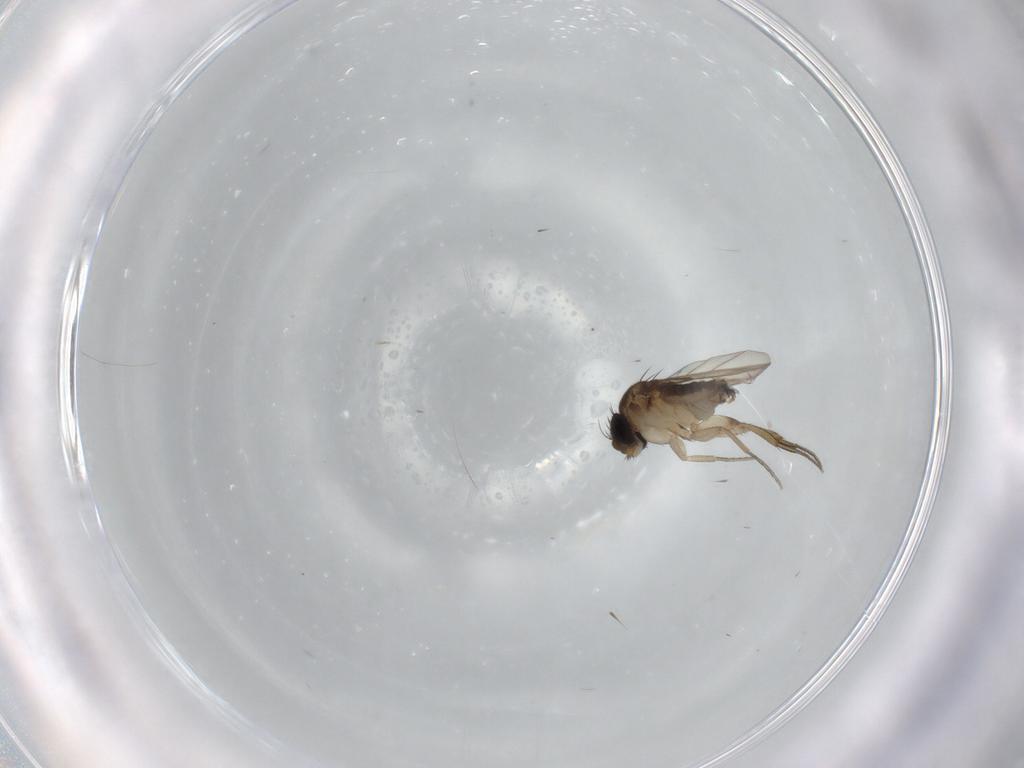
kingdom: Animalia
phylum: Arthropoda
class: Insecta
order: Diptera
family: Phoridae
